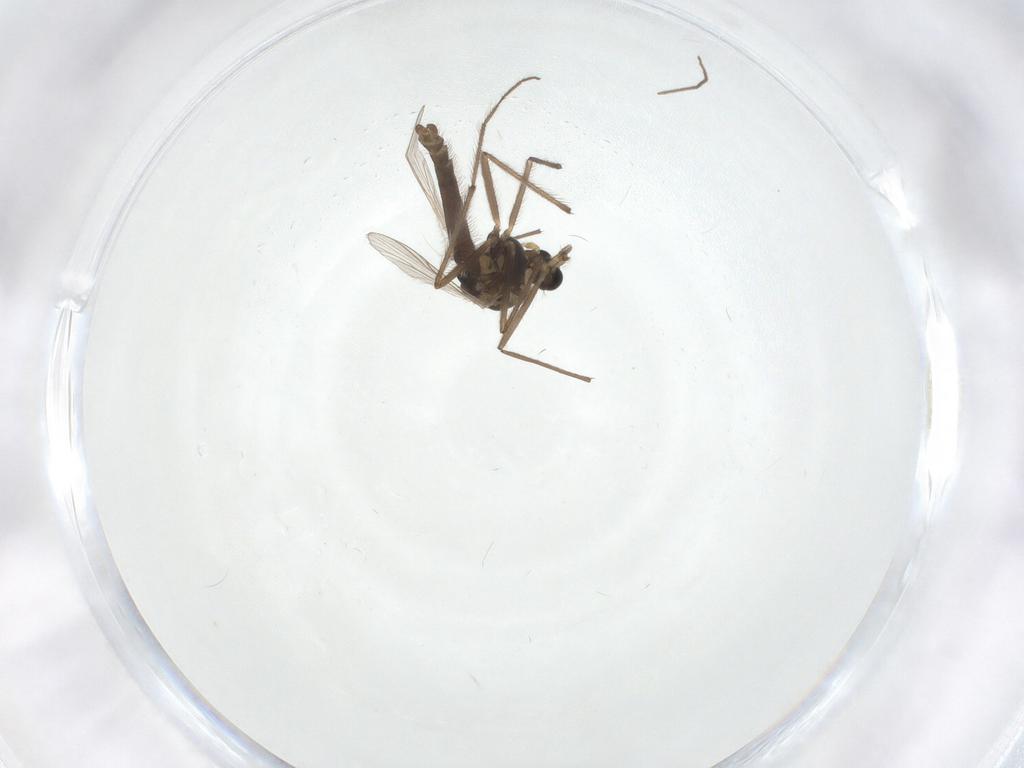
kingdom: Animalia
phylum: Arthropoda
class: Insecta
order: Diptera
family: Chironomidae
